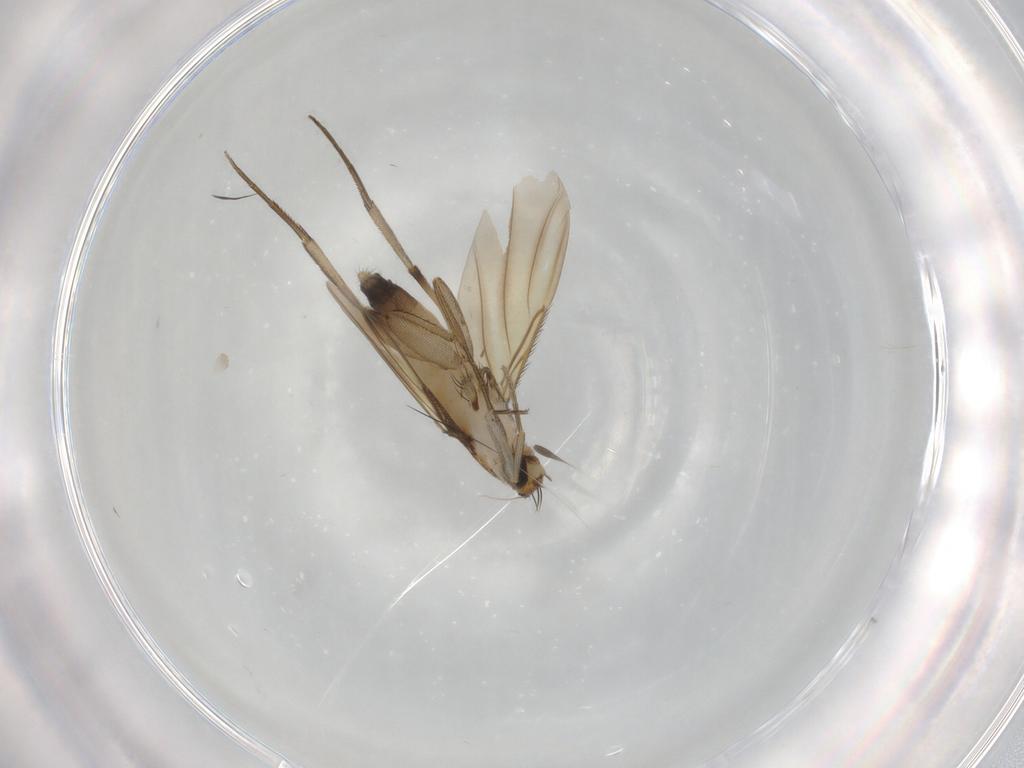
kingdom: Animalia
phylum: Arthropoda
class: Insecta
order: Diptera
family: Phoridae
